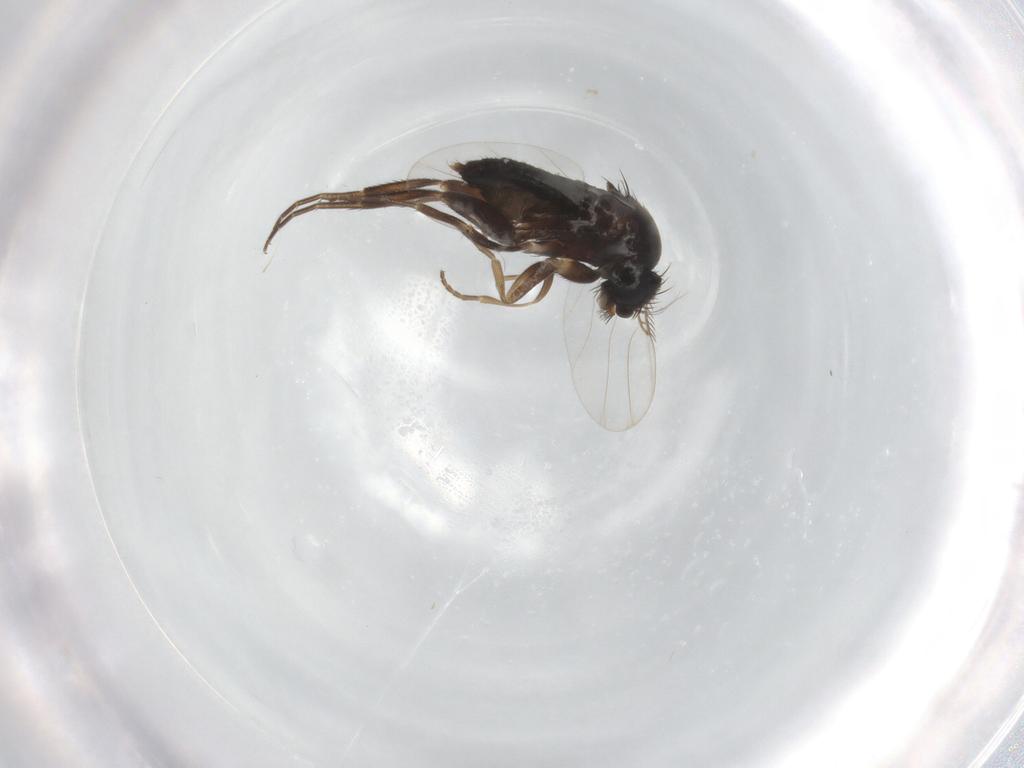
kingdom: Animalia
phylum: Arthropoda
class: Insecta
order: Diptera
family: Phoridae
